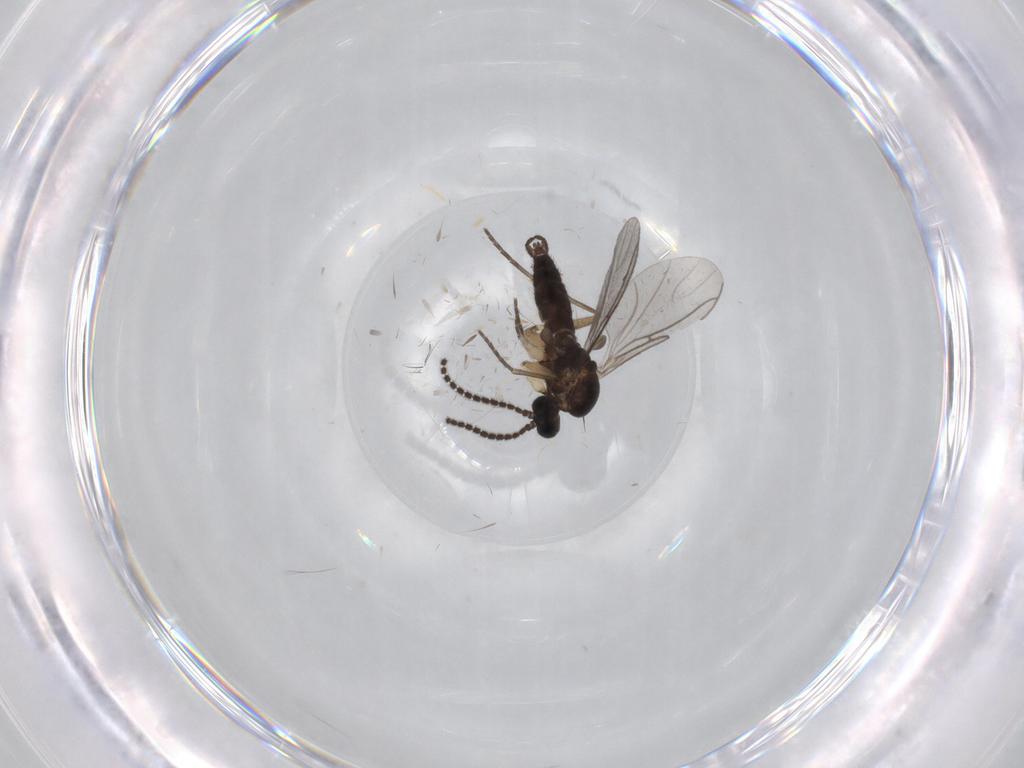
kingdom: Animalia
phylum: Arthropoda
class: Insecta
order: Diptera
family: Chironomidae
